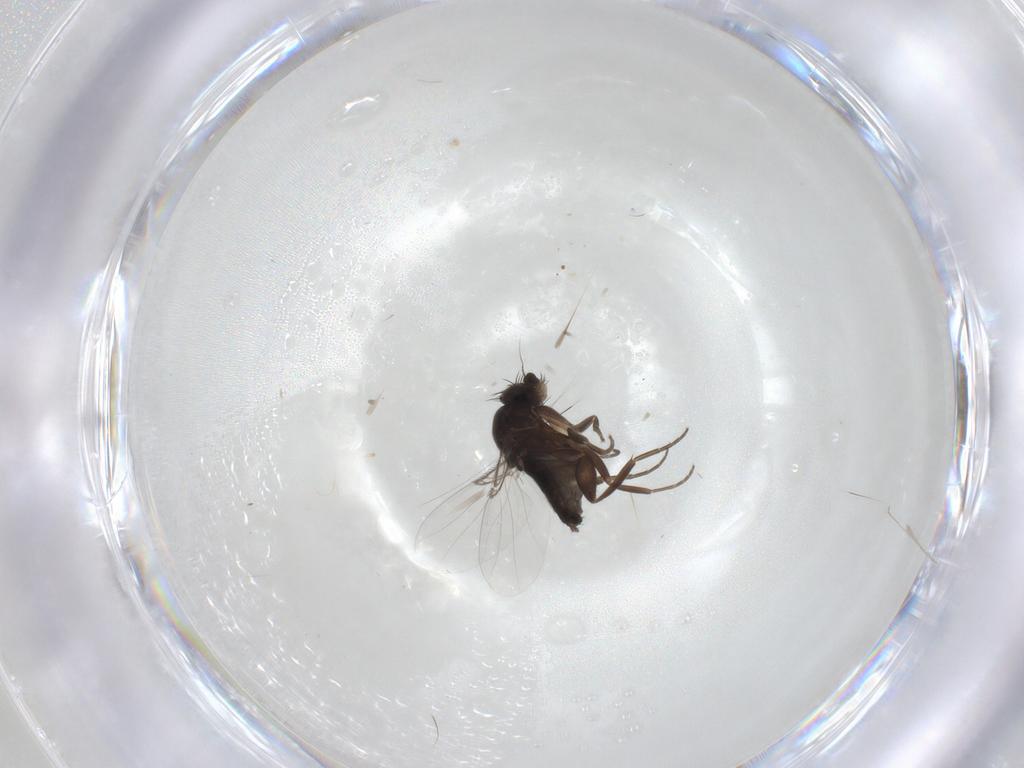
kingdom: Animalia
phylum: Arthropoda
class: Insecta
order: Diptera
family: Phoridae
